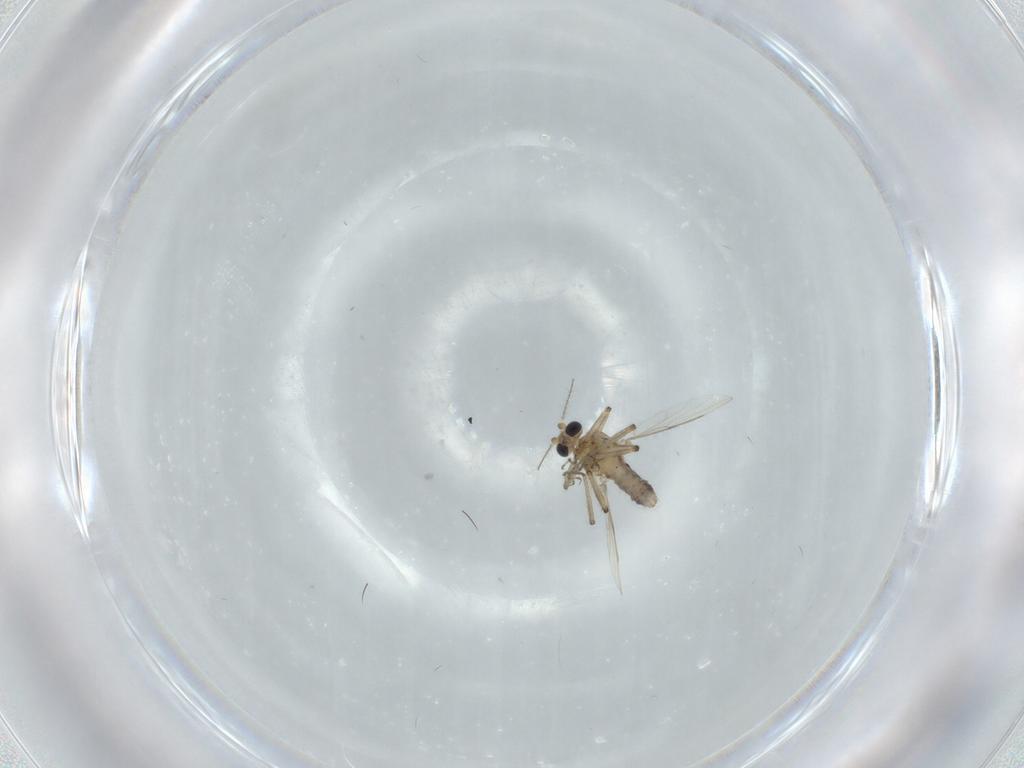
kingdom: Animalia
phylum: Arthropoda
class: Insecta
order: Diptera
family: Ceratopogonidae
